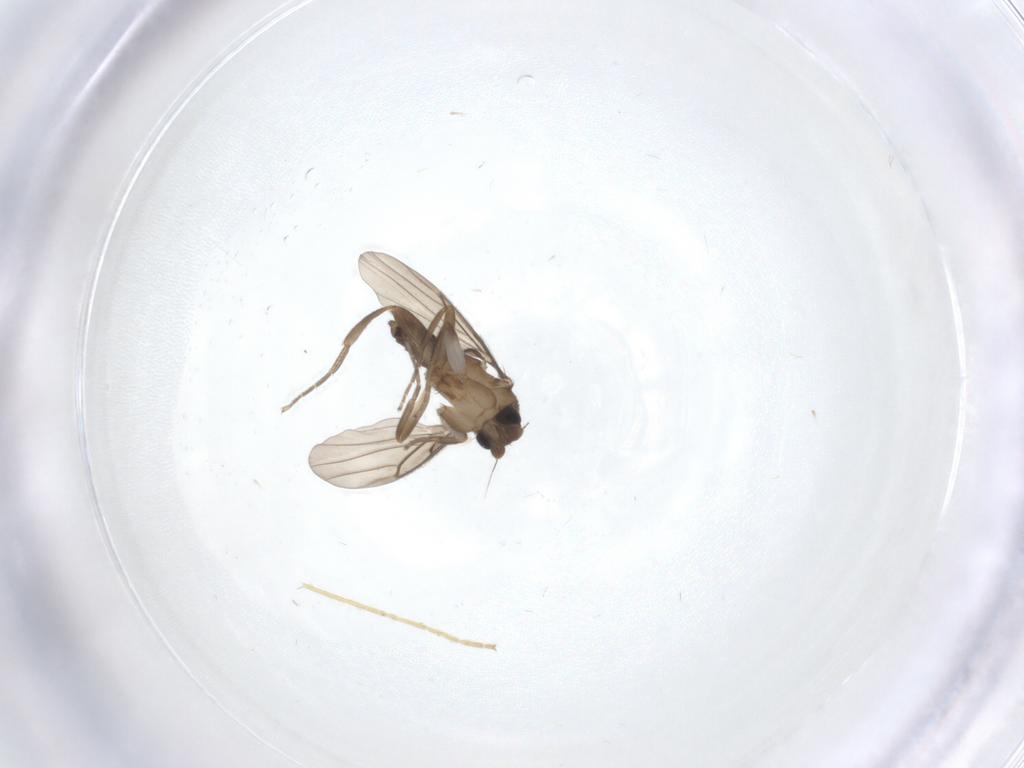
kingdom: Animalia
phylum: Arthropoda
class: Insecta
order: Diptera
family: Cecidomyiidae
